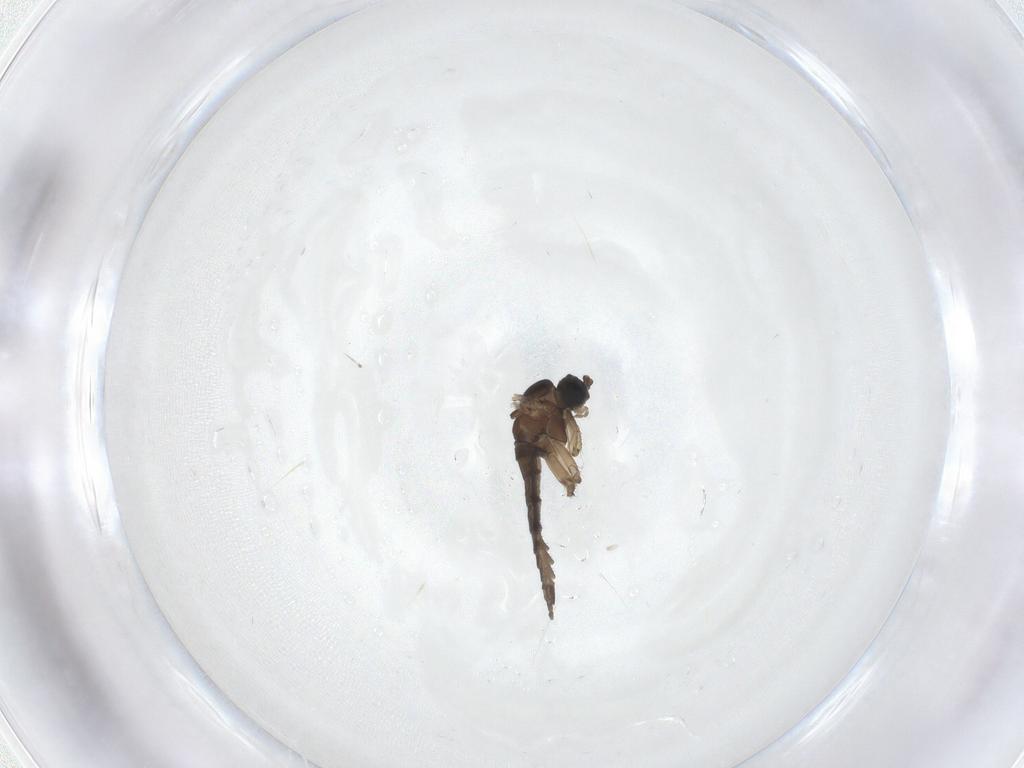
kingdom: Animalia
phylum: Arthropoda
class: Insecta
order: Diptera
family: Sciaridae
